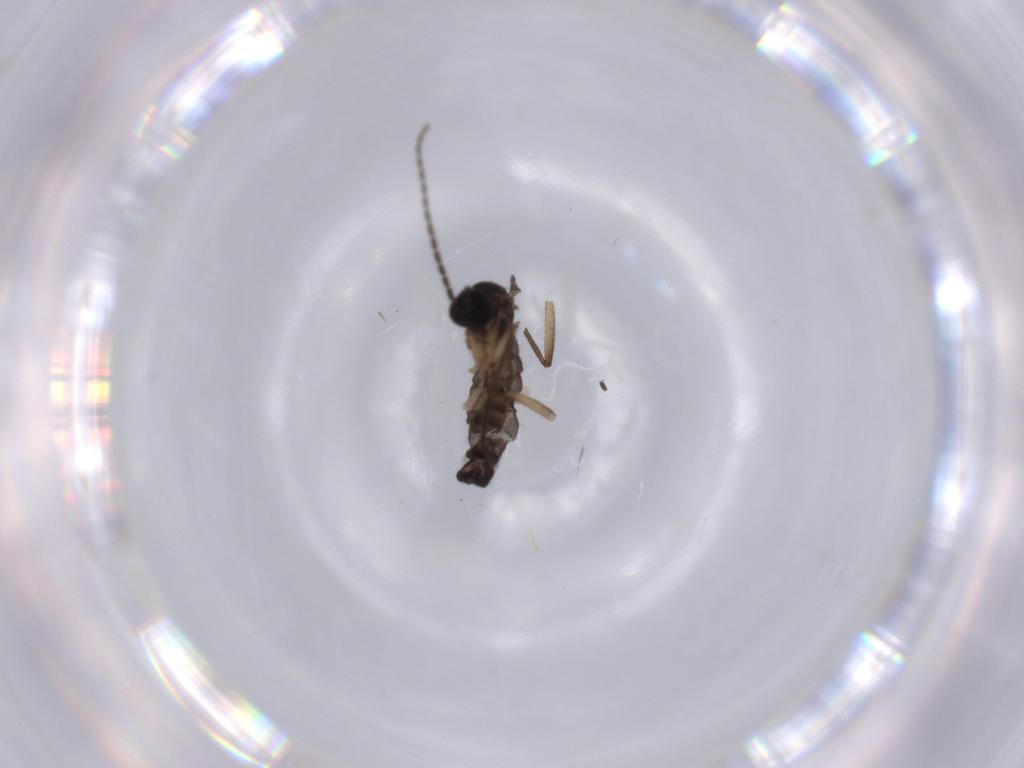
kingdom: Animalia
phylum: Arthropoda
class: Insecta
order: Diptera
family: Sciaridae
